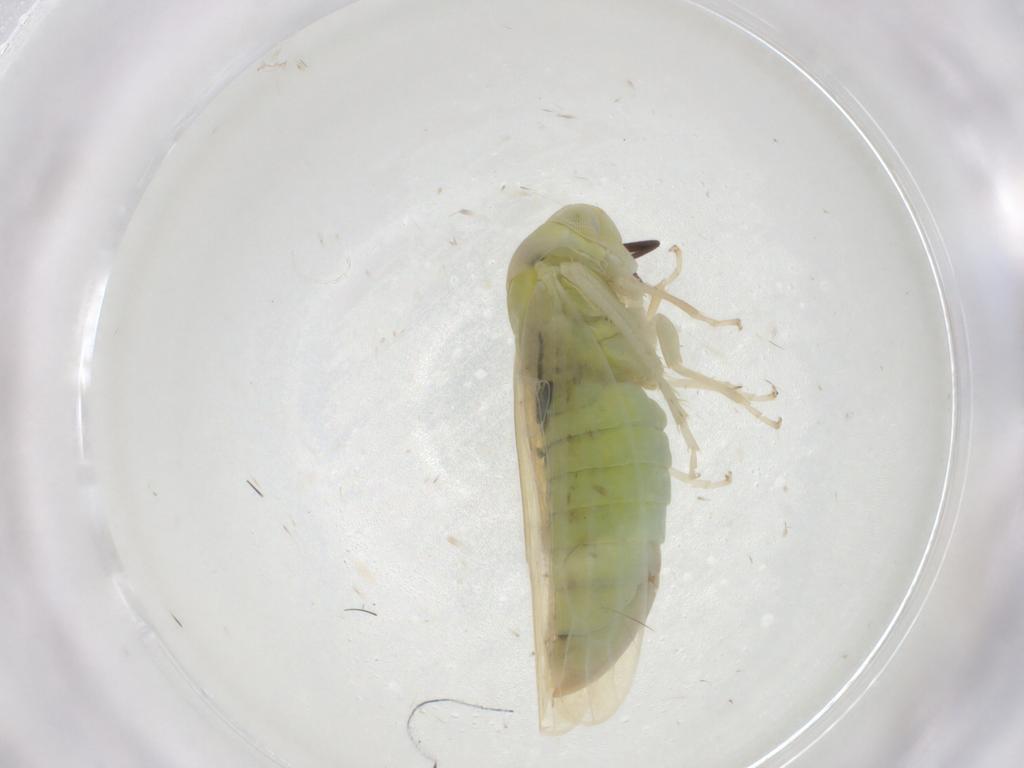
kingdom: Animalia
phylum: Arthropoda
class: Insecta
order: Hemiptera
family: Cicadellidae
